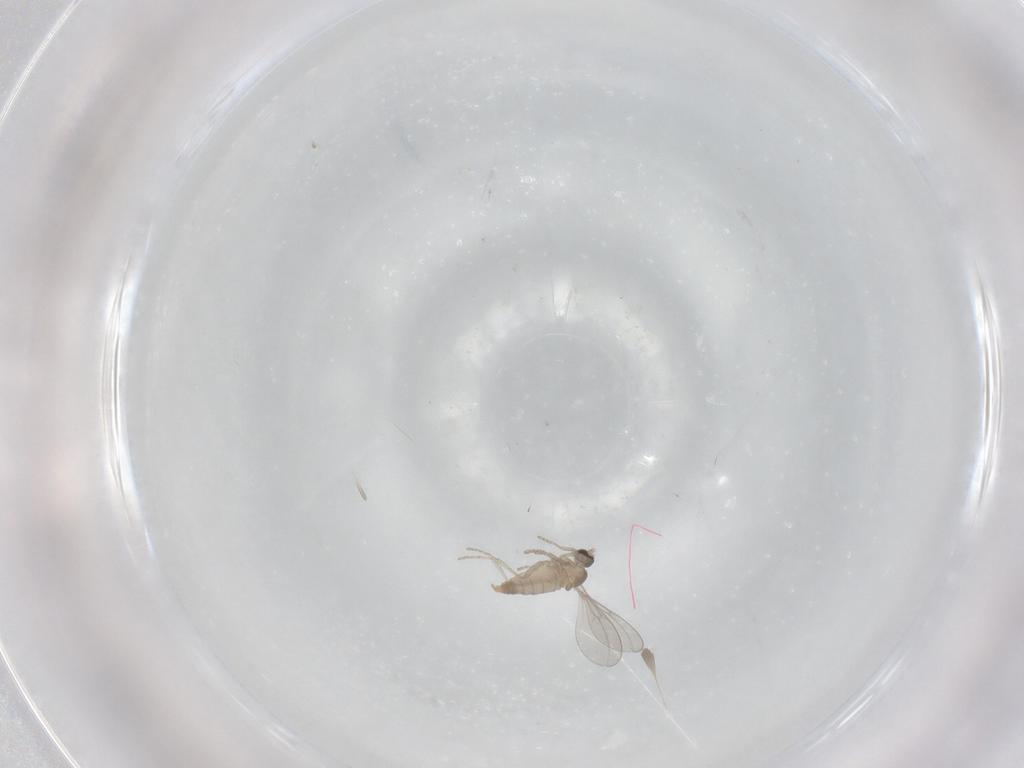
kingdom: Animalia
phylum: Arthropoda
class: Insecta
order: Diptera
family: Cecidomyiidae
